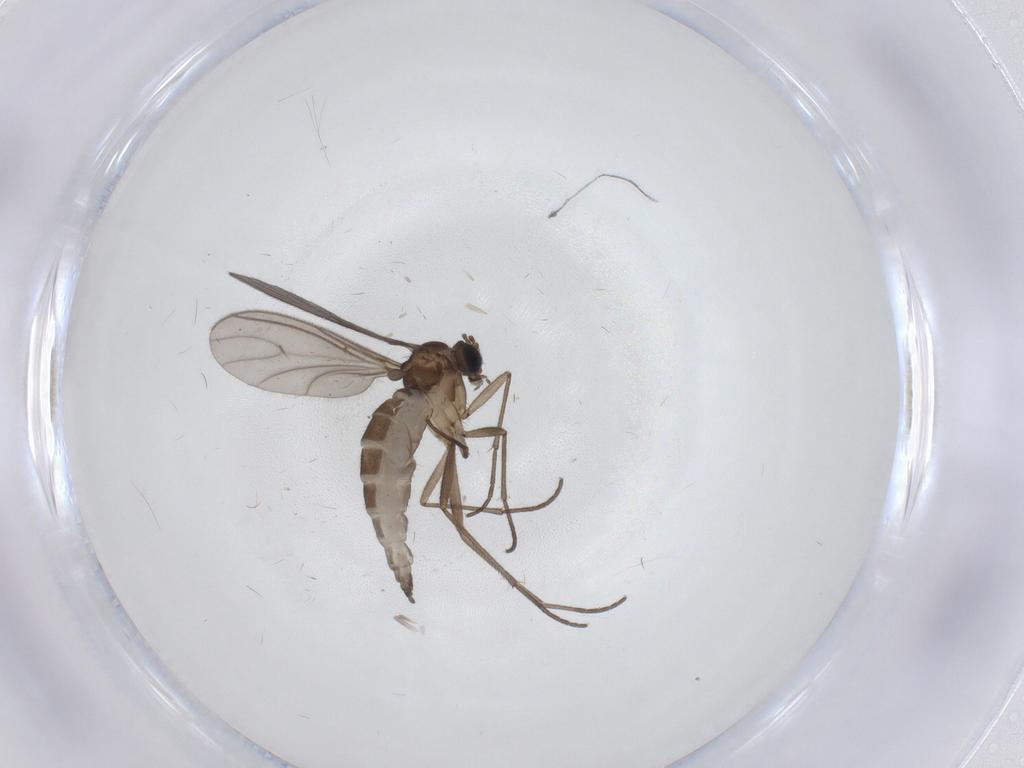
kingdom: Animalia
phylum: Arthropoda
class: Insecta
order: Diptera
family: Sciaridae
